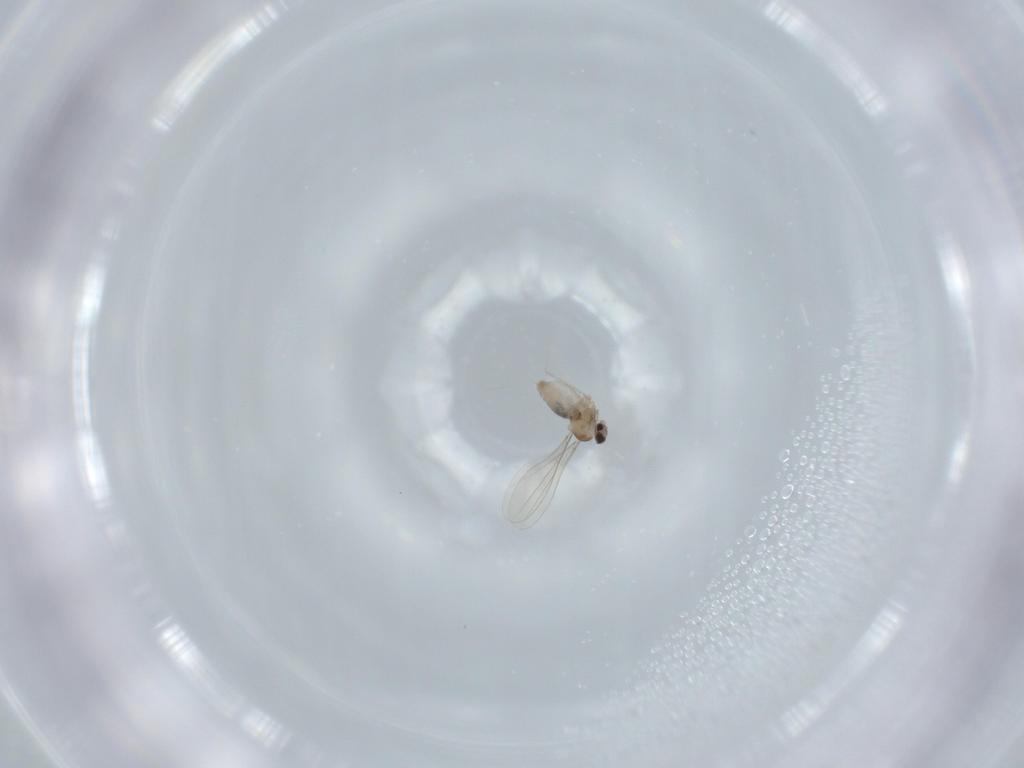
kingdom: Animalia
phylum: Arthropoda
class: Insecta
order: Diptera
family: Cecidomyiidae
